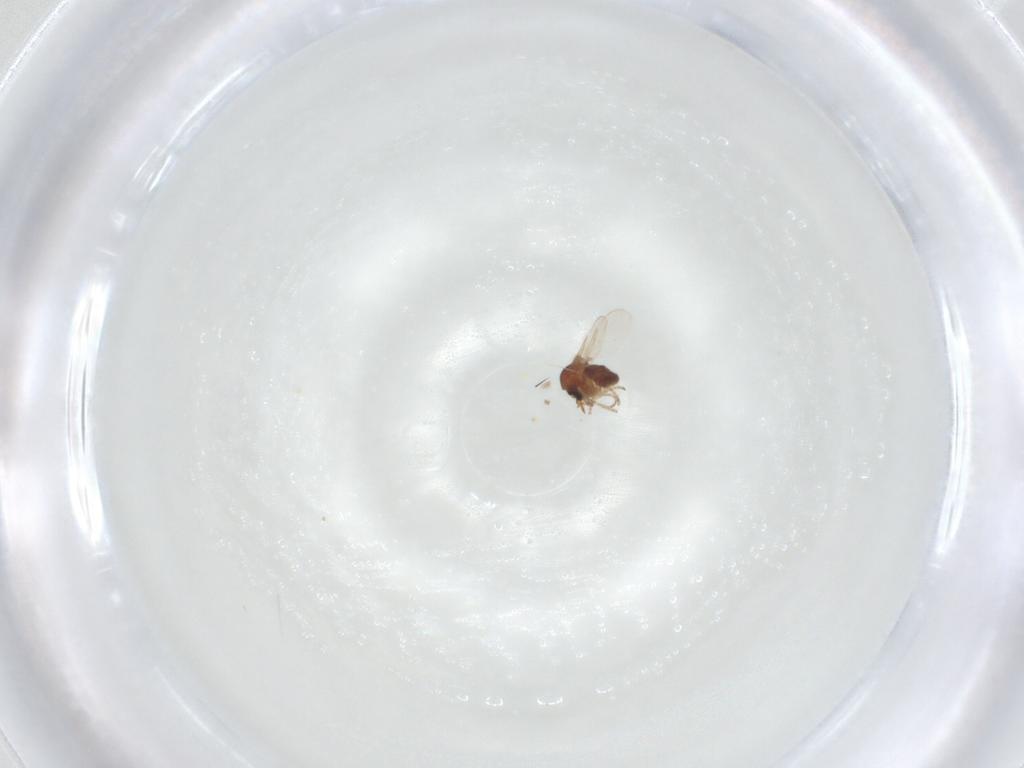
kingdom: Animalia
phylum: Arthropoda
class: Insecta
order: Diptera
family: Ceratopogonidae
